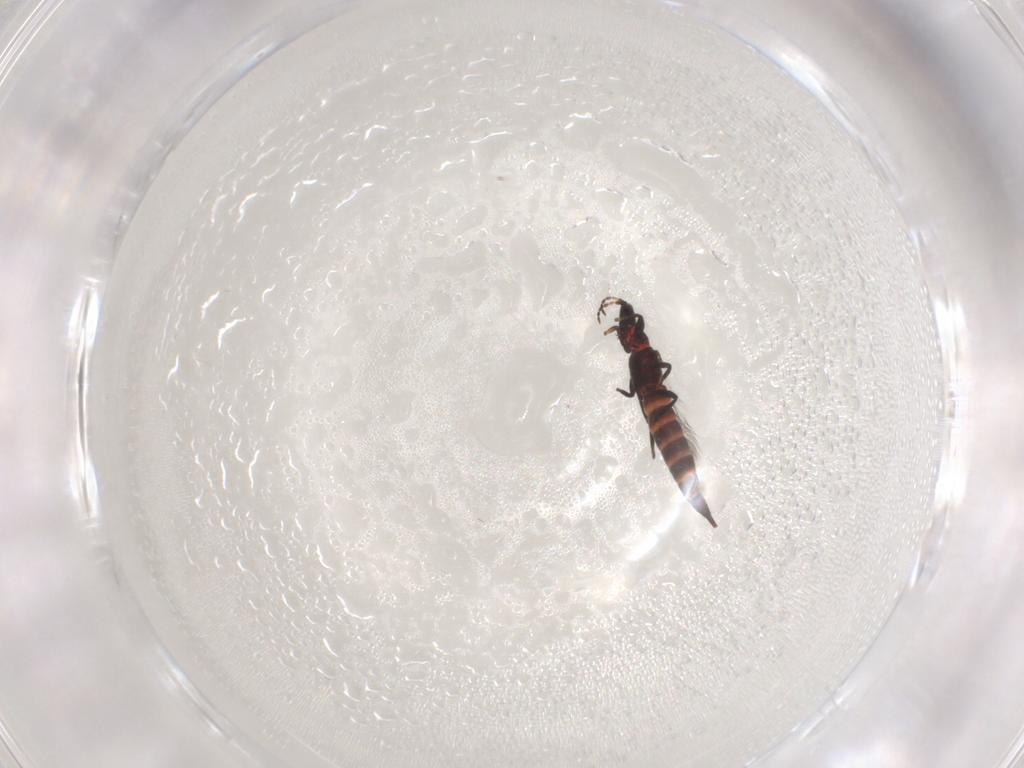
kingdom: Animalia
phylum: Arthropoda
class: Insecta
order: Thysanoptera
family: Phlaeothripidae
